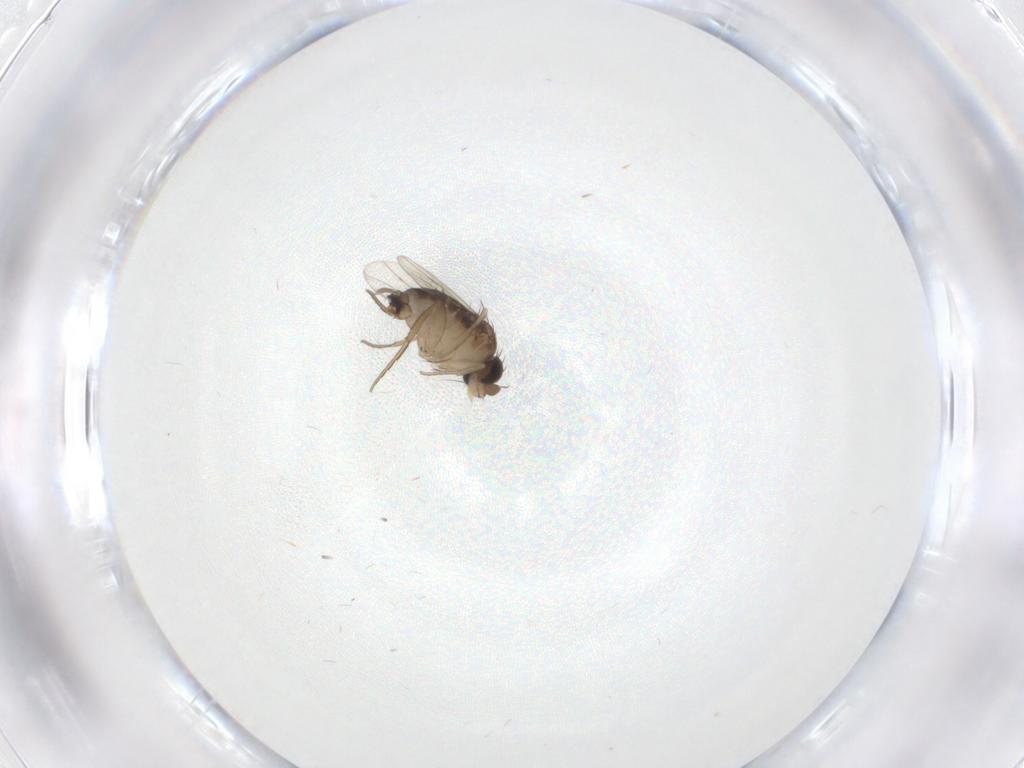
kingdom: Animalia
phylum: Arthropoda
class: Insecta
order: Diptera
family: Phoridae
